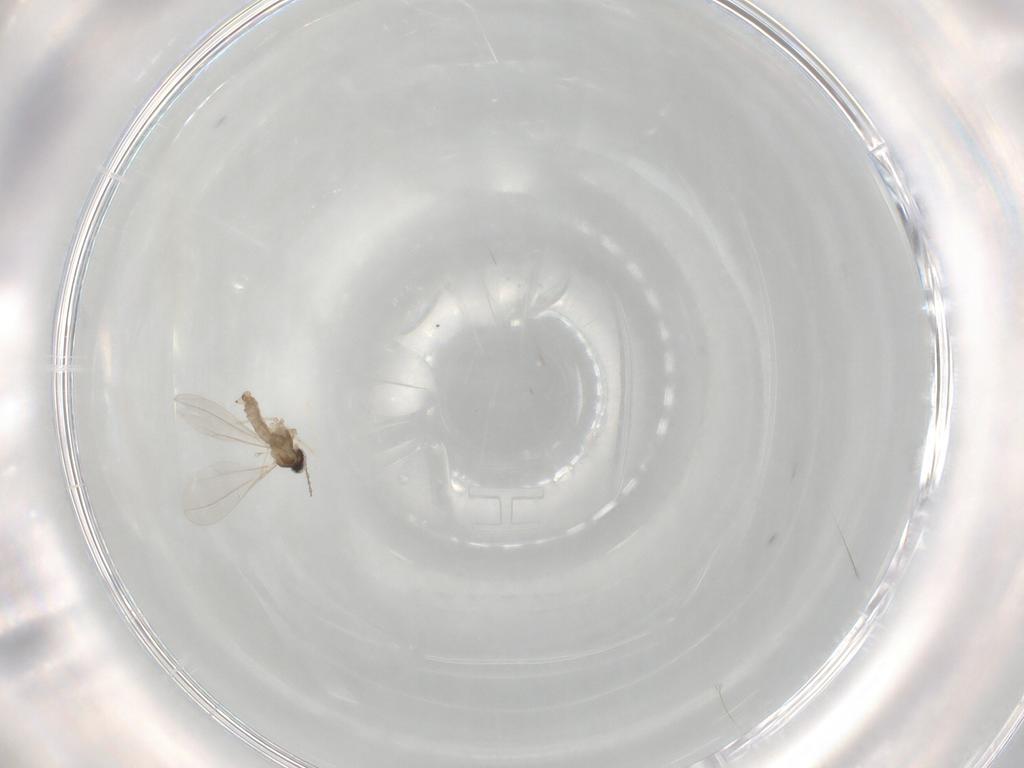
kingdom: Animalia
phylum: Arthropoda
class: Insecta
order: Diptera
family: Cecidomyiidae
